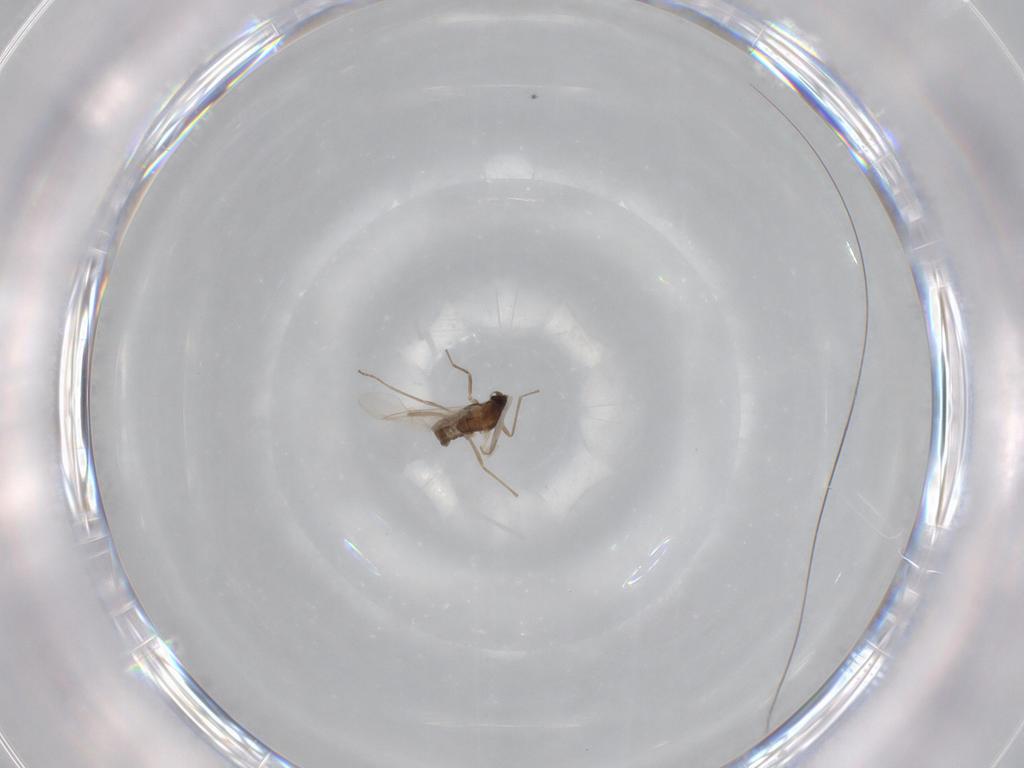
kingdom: Animalia
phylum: Arthropoda
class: Insecta
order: Diptera
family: Cecidomyiidae
